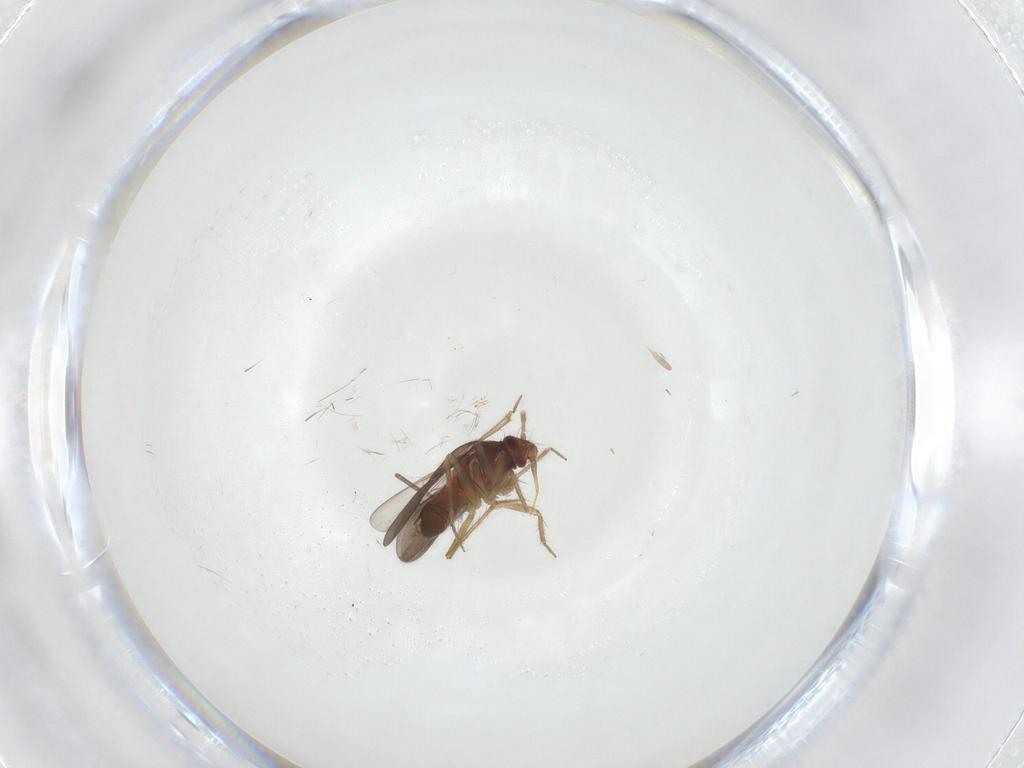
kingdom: Animalia
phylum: Arthropoda
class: Insecta
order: Hemiptera
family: Ceratocombidae
